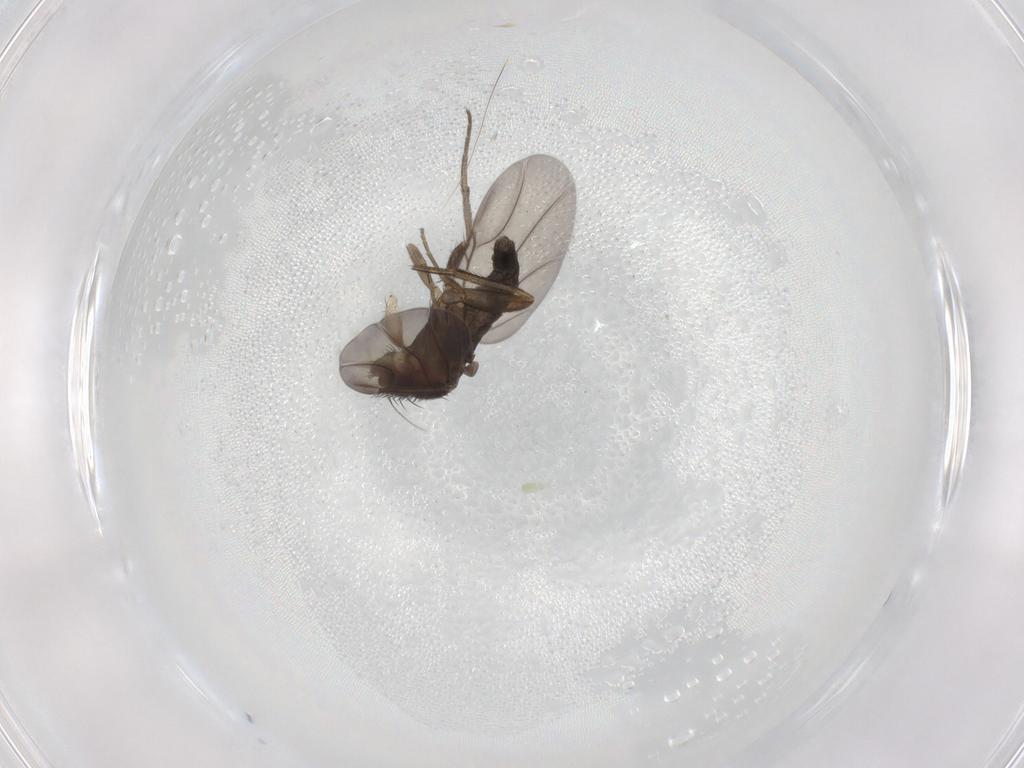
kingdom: Animalia
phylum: Arthropoda
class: Insecta
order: Diptera
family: Phoridae
